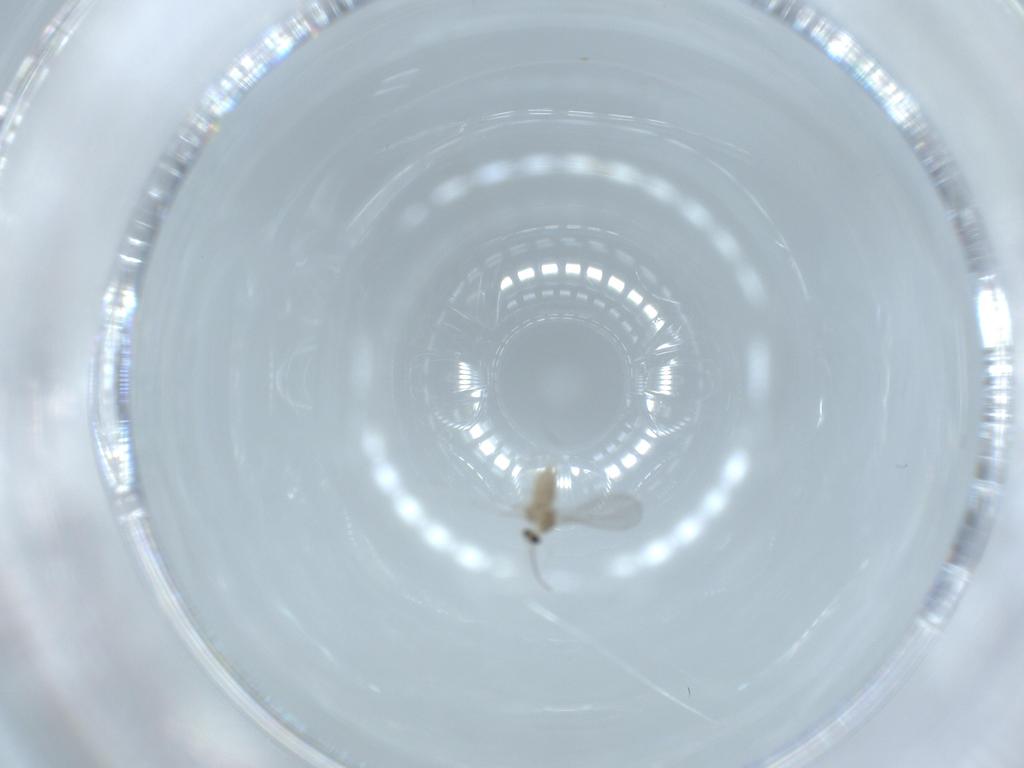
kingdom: Animalia
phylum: Arthropoda
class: Insecta
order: Diptera
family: Cecidomyiidae
